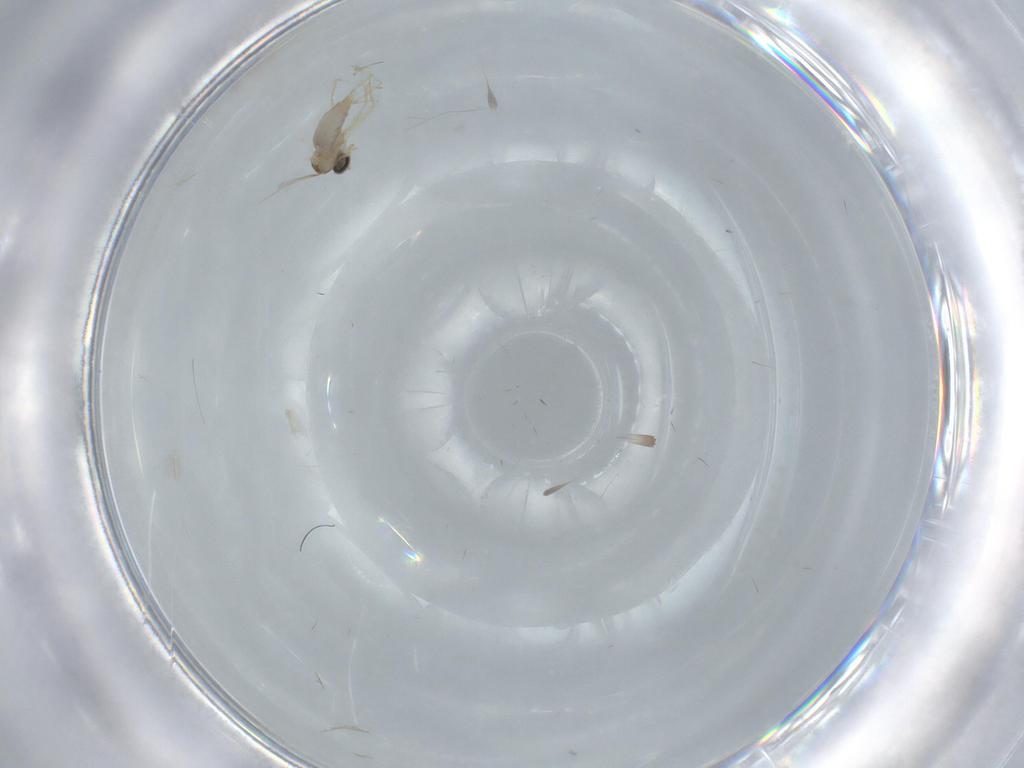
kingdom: Animalia
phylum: Arthropoda
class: Insecta
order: Diptera
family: Cecidomyiidae
